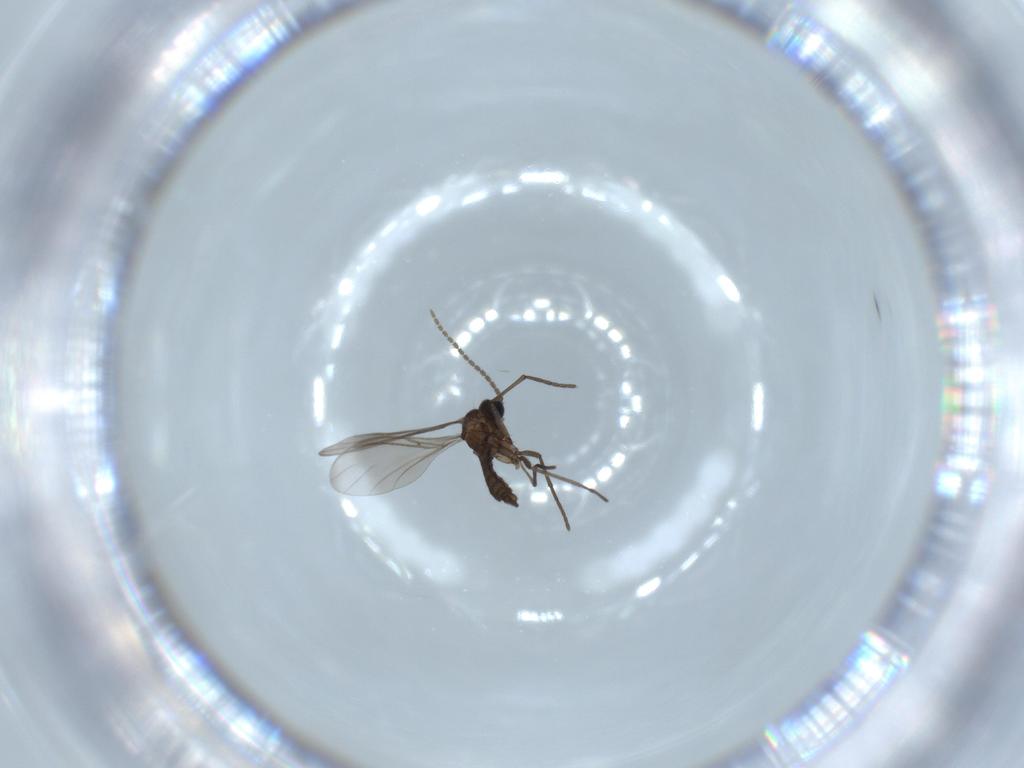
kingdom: Animalia
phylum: Arthropoda
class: Insecta
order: Diptera
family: Sciaridae
